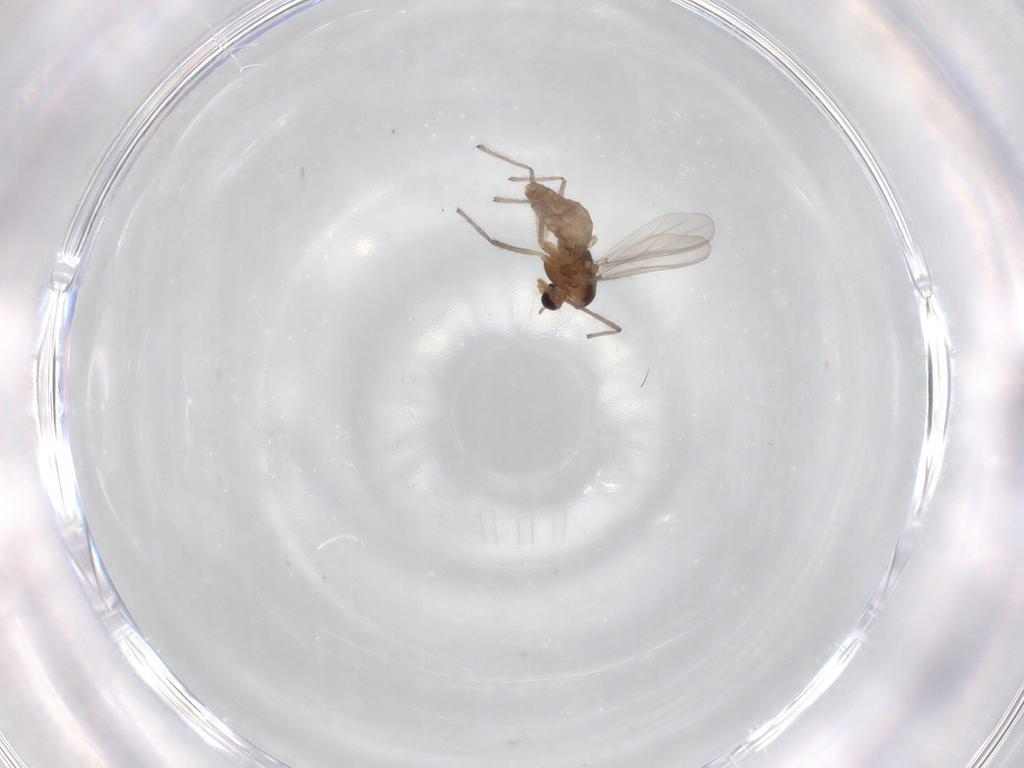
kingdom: Animalia
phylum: Arthropoda
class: Insecta
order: Diptera
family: Chironomidae
